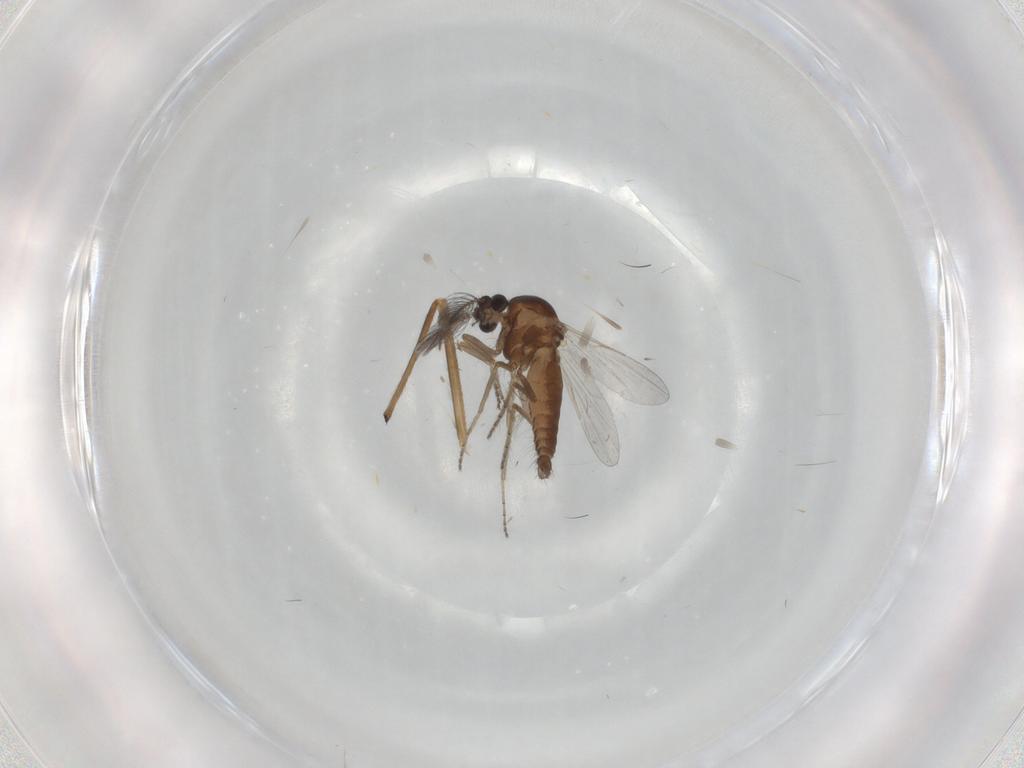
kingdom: Animalia
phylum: Arthropoda
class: Insecta
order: Diptera
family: Ceratopogonidae
